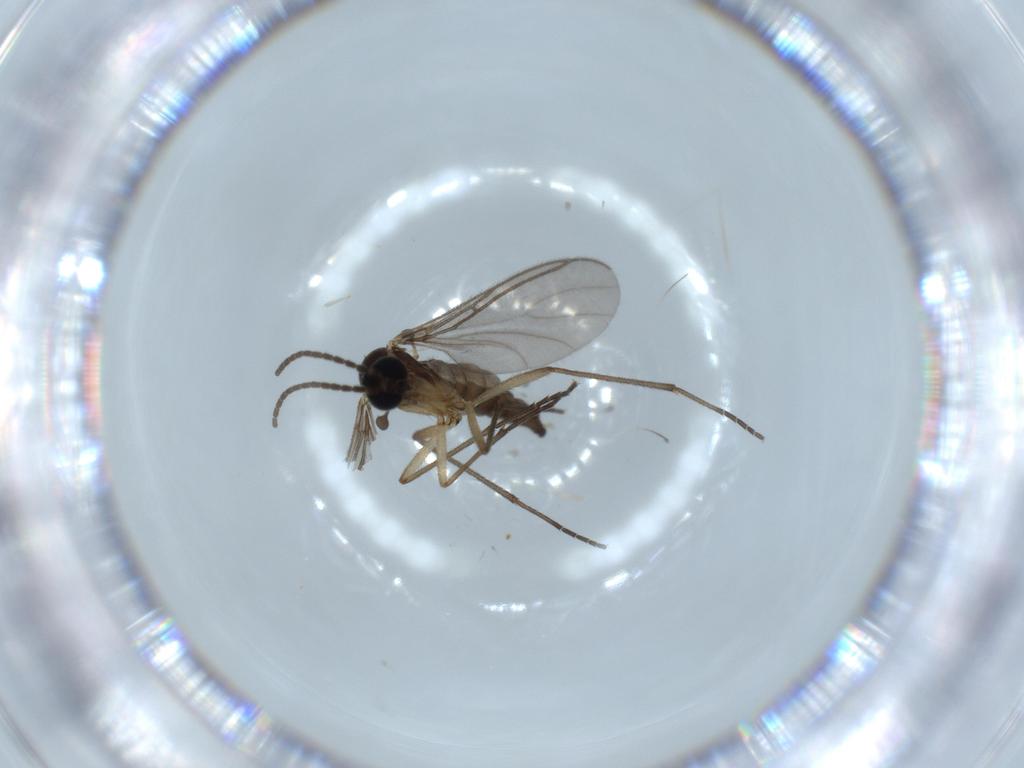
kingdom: Animalia
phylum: Arthropoda
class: Insecta
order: Diptera
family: Sciaridae
